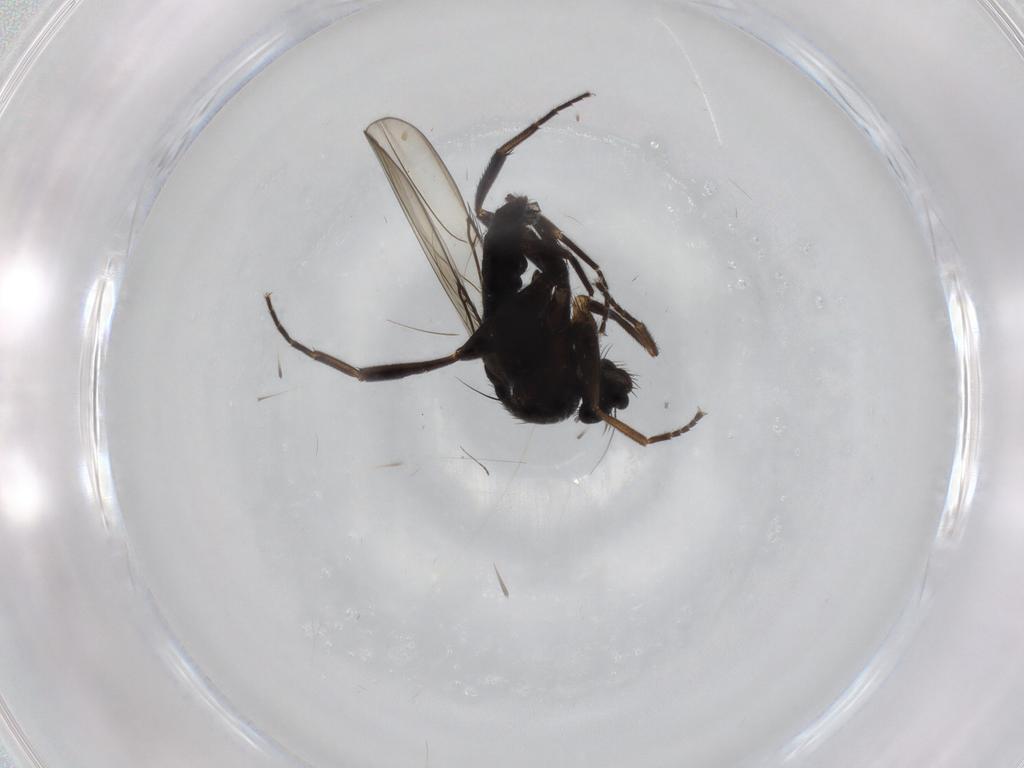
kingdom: Animalia
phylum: Arthropoda
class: Insecta
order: Diptera
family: Phoridae
